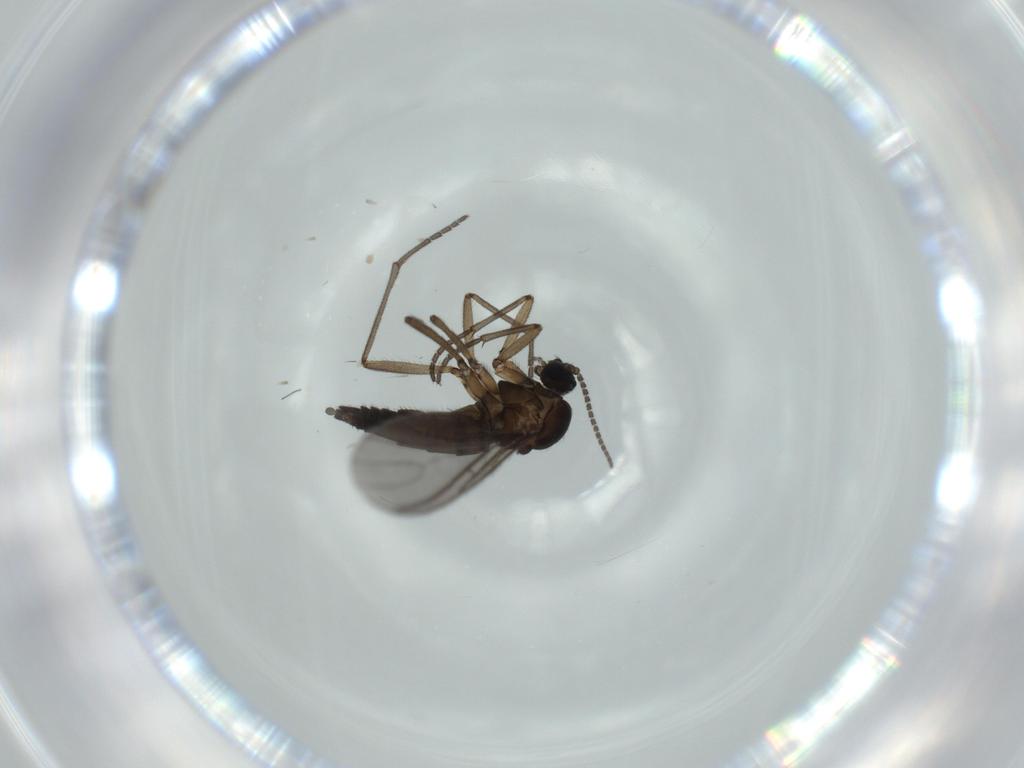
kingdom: Animalia
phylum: Arthropoda
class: Insecta
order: Diptera
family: Sciaridae
